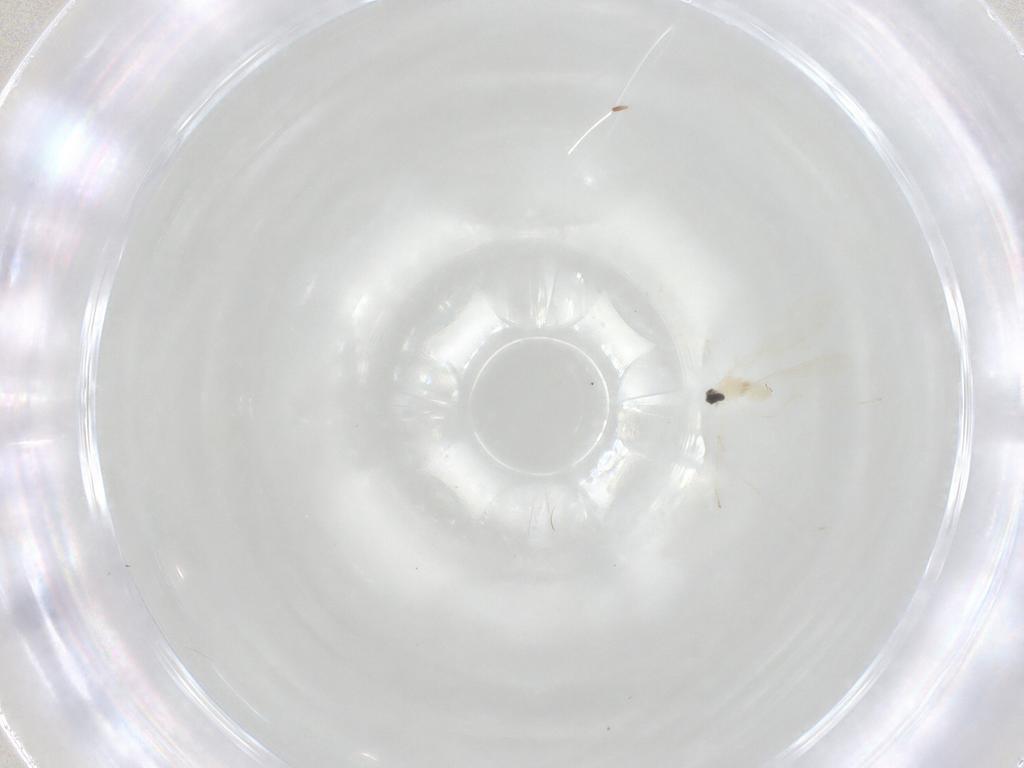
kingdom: Animalia
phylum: Arthropoda
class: Insecta
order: Diptera
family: Cecidomyiidae
